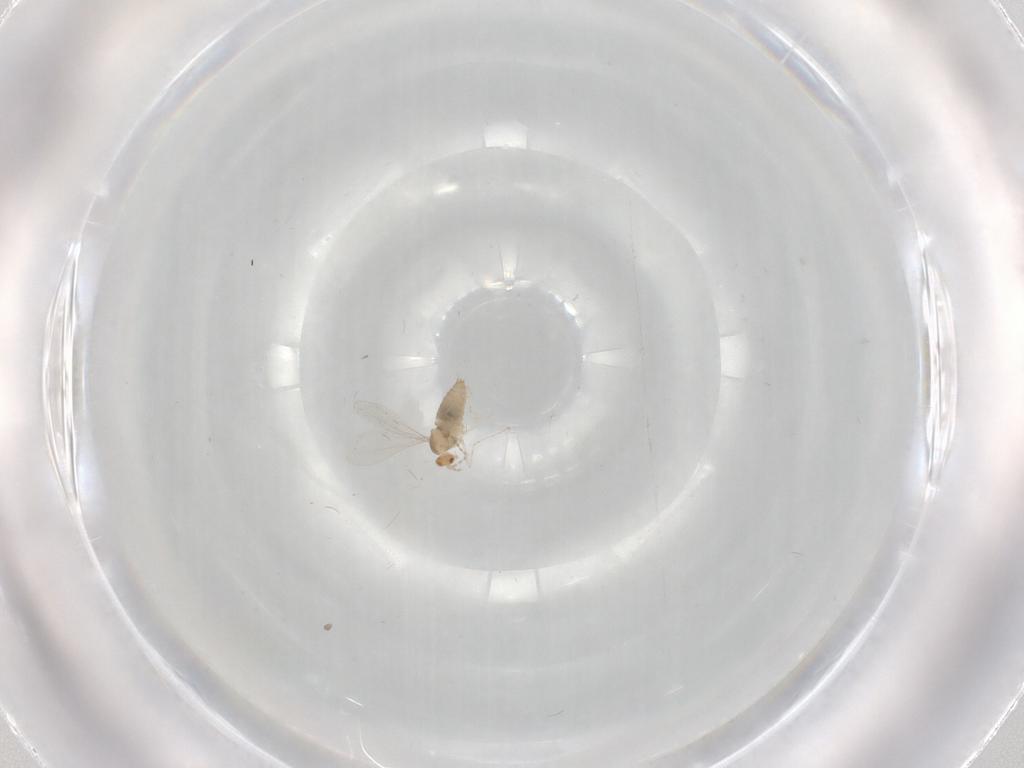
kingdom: Animalia
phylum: Arthropoda
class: Insecta
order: Diptera
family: Cecidomyiidae
